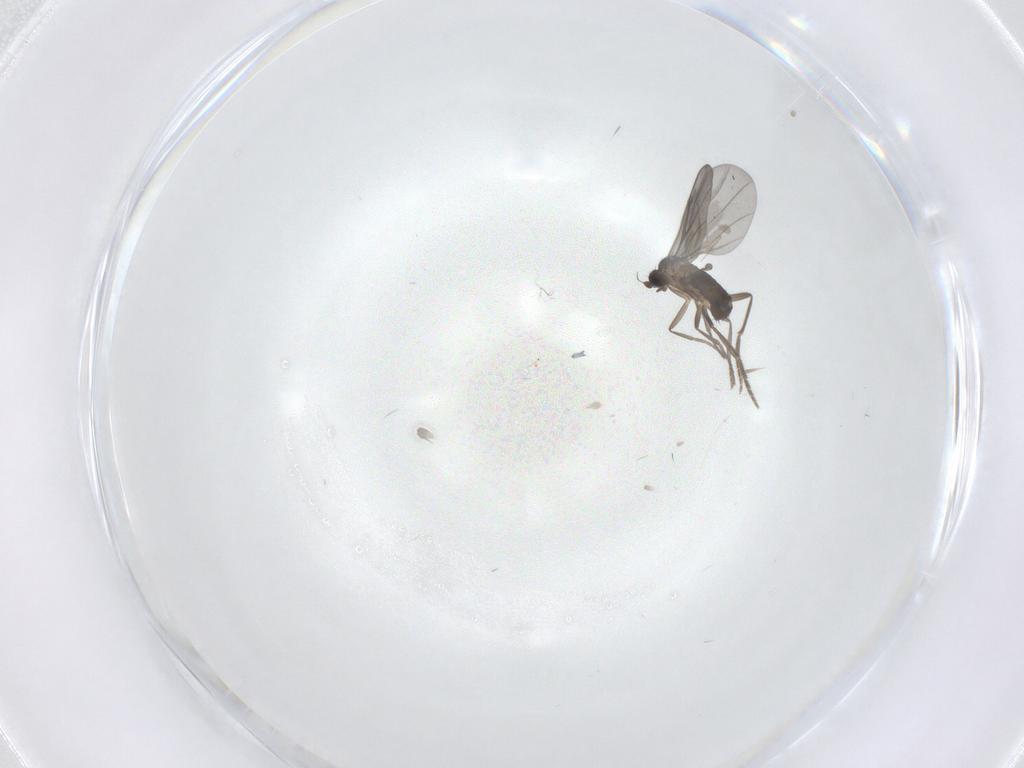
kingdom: Animalia
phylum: Arthropoda
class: Insecta
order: Diptera
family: Phoridae
